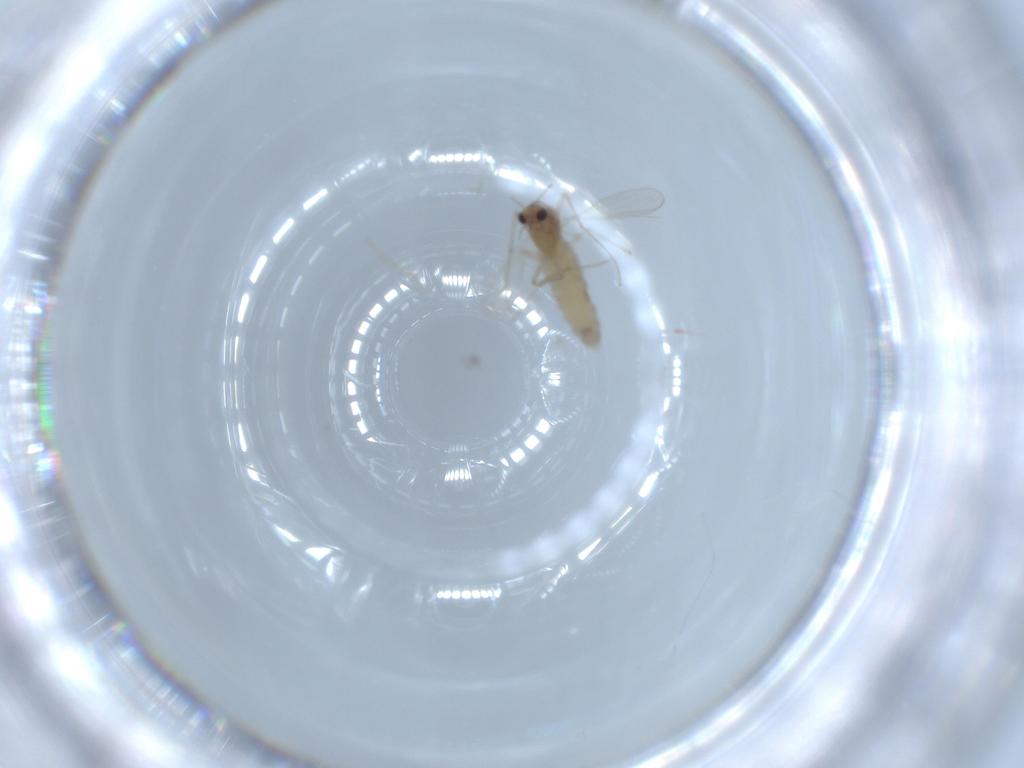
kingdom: Animalia
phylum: Arthropoda
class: Insecta
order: Diptera
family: Chironomidae
